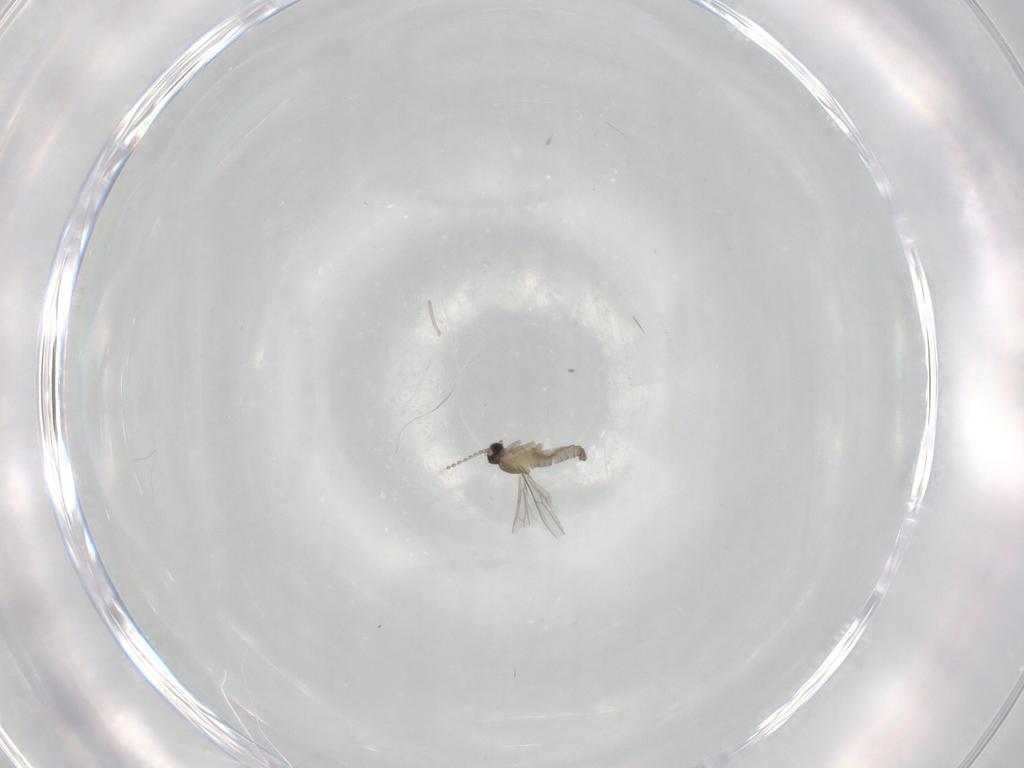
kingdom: Animalia
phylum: Arthropoda
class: Insecta
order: Diptera
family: Cecidomyiidae
